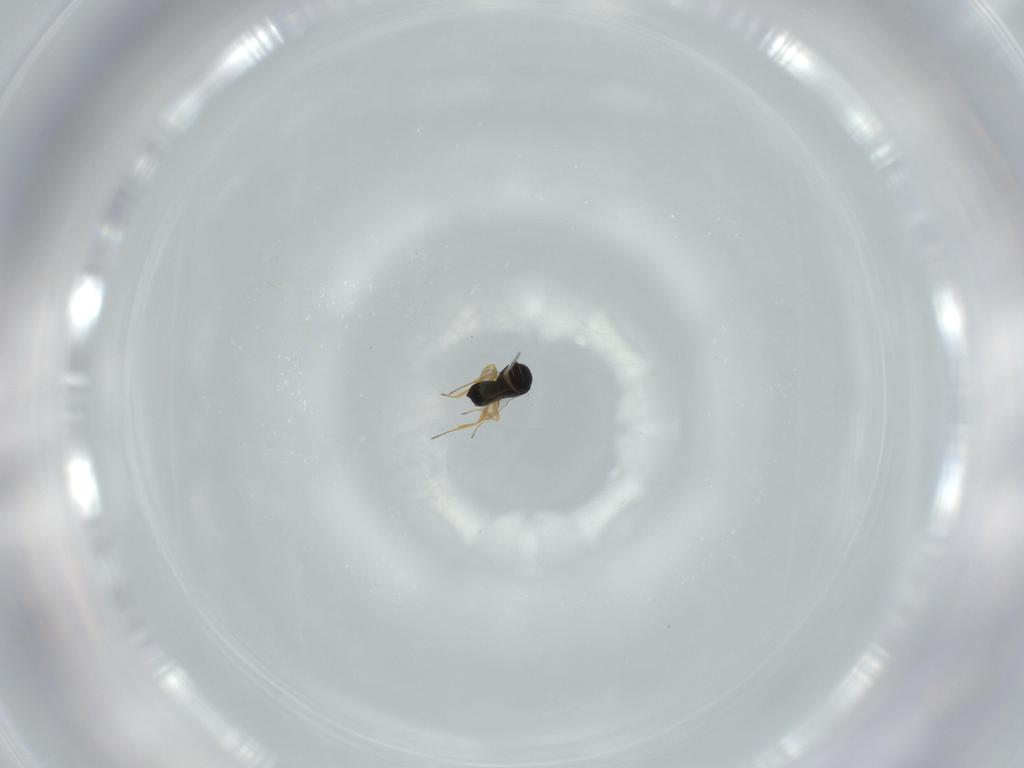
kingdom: Animalia
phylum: Arthropoda
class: Insecta
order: Hymenoptera
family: Scelionidae
